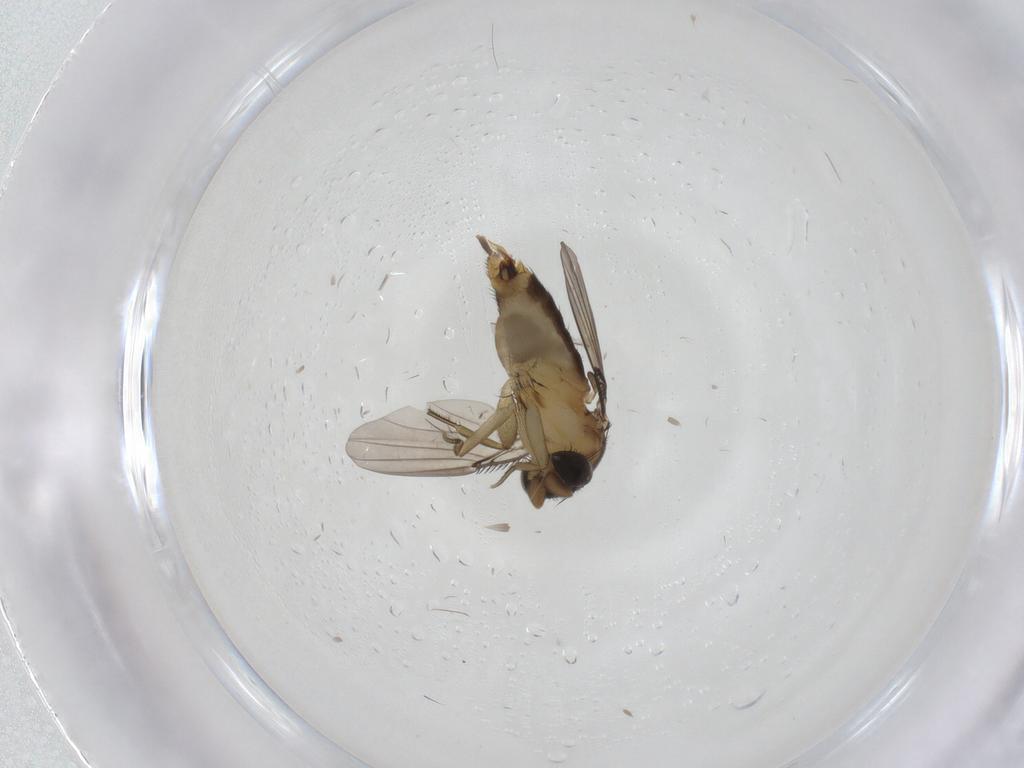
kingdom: Animalia
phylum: Arthropoda
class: Insecta
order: Diptera
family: Phoridae
